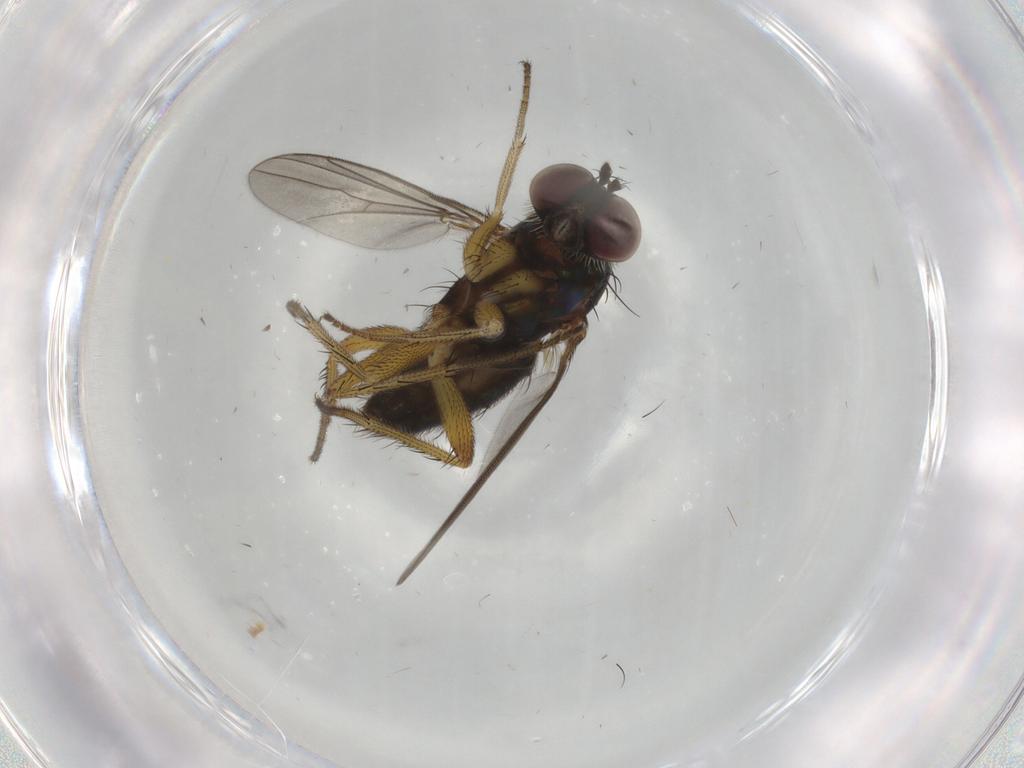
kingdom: Animalia
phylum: Arthropoda
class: Insecta
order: Diptera
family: Dolichopodidae
